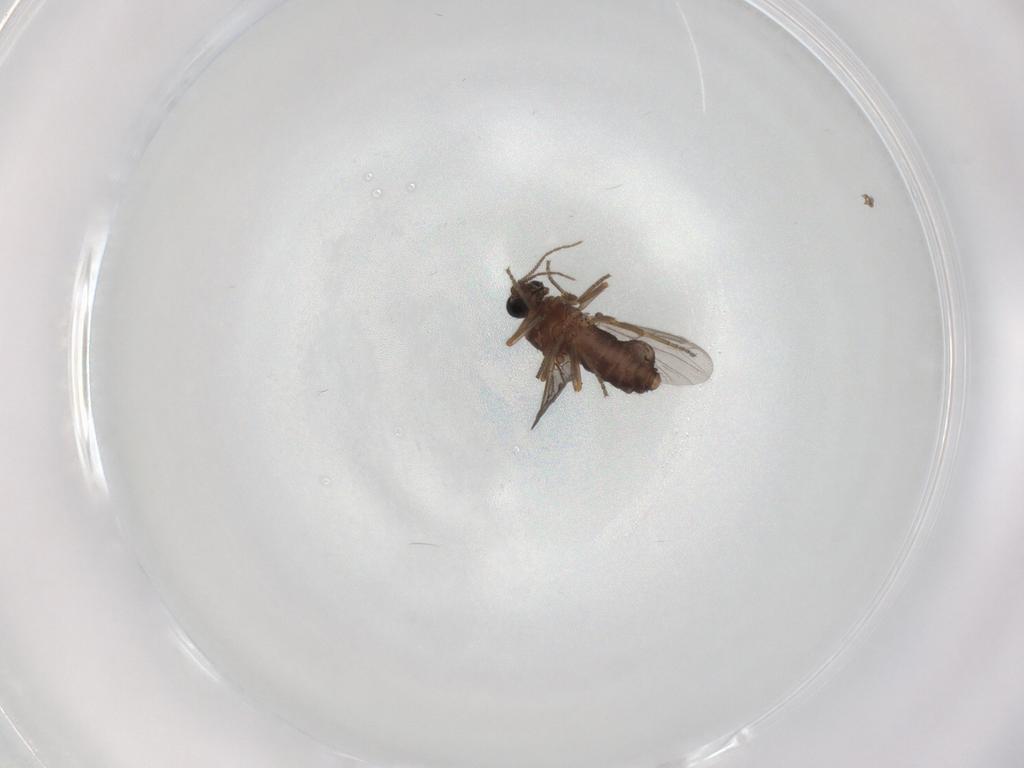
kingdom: Animalia
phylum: Arthropoda
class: Insecta
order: Diptera
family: Ceratopogonidae
